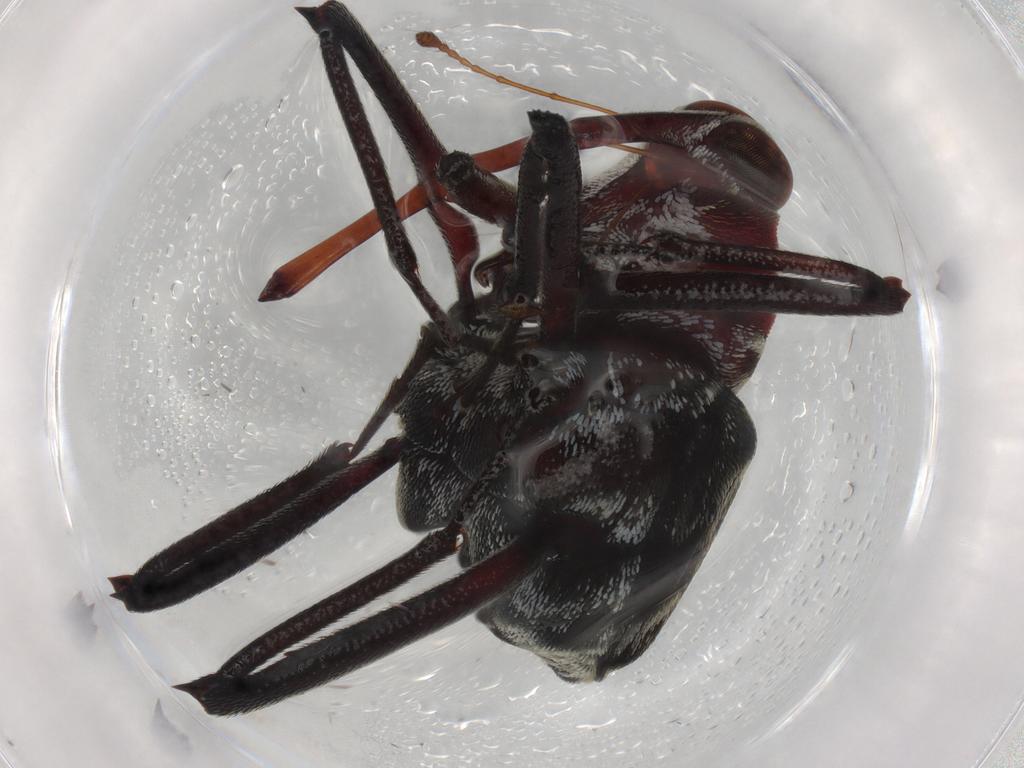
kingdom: Animalia
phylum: Arthropoda
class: Insecta
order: Coleoptera
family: Curculionidae
